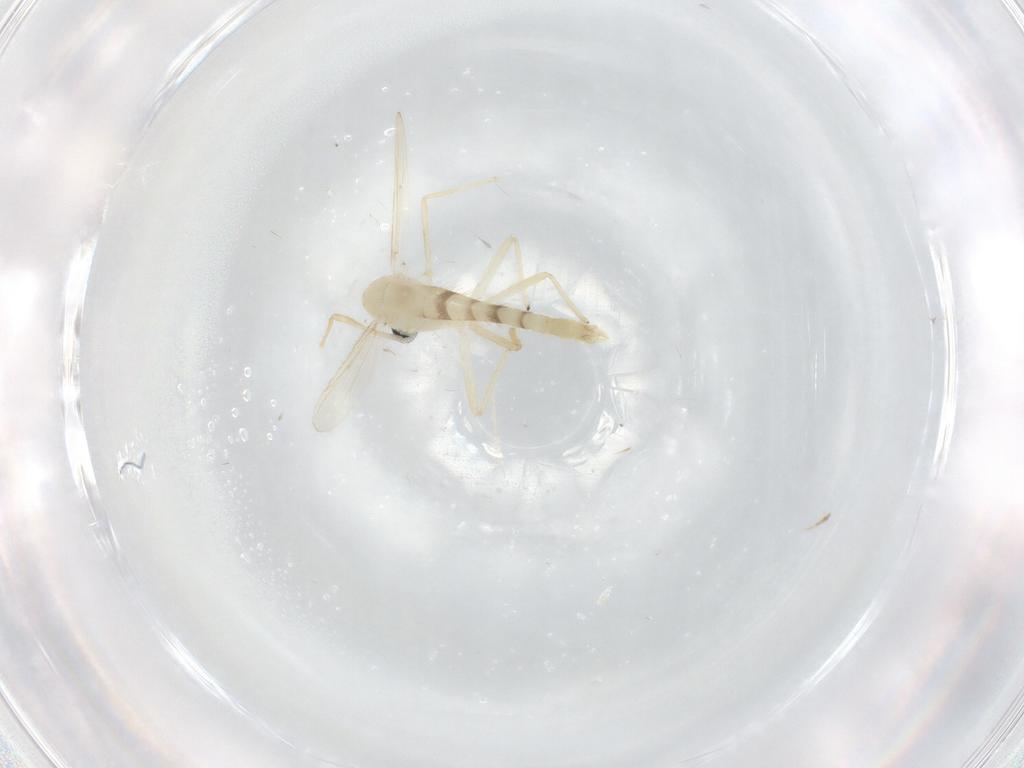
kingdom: Animalia
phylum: Arthropoda
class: Insecta
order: Diptera
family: Chironomidae
